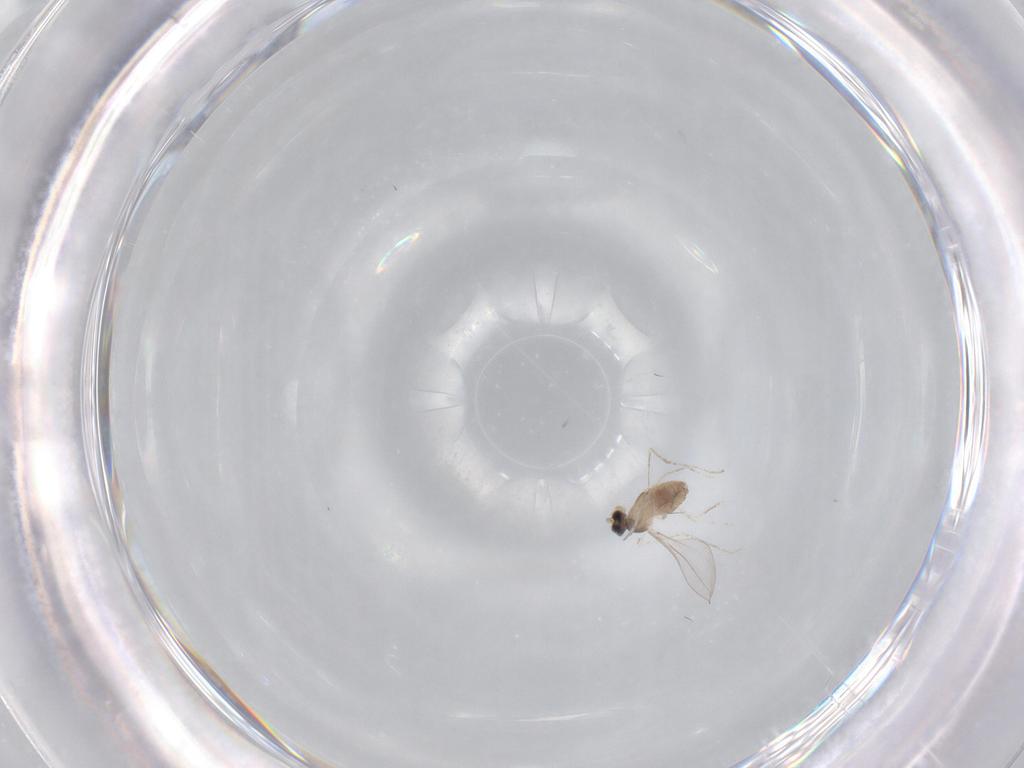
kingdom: Animalia
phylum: Arthropoda
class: Insecta
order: Diptera
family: Cecidomyiidae
